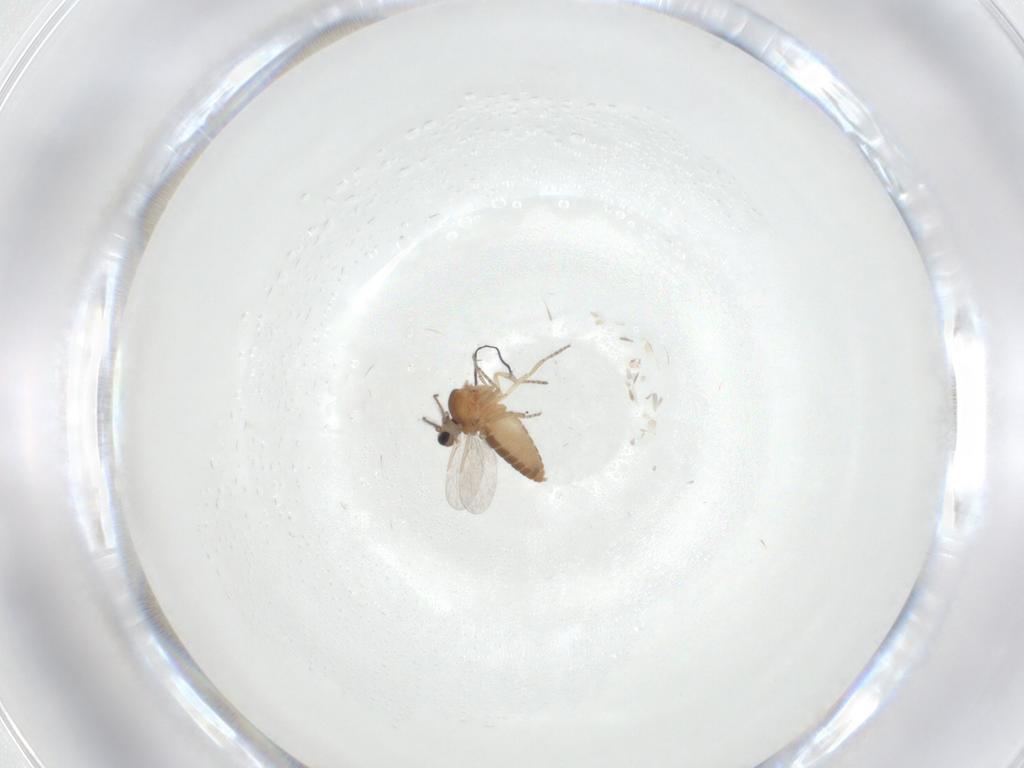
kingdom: Animalia
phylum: Arthropoda
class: Insecta
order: Diptera
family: Ceratopogonidae
